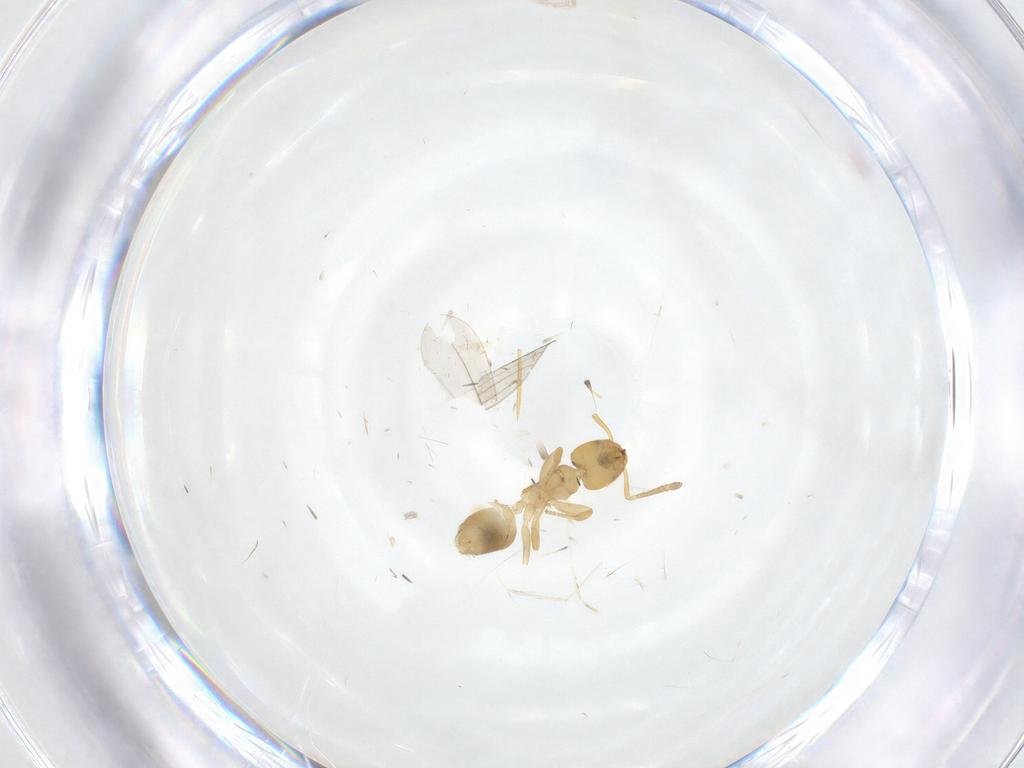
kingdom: Animalia
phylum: Arthropoda
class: Insecta
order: Hymenoptera
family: Formicidae
